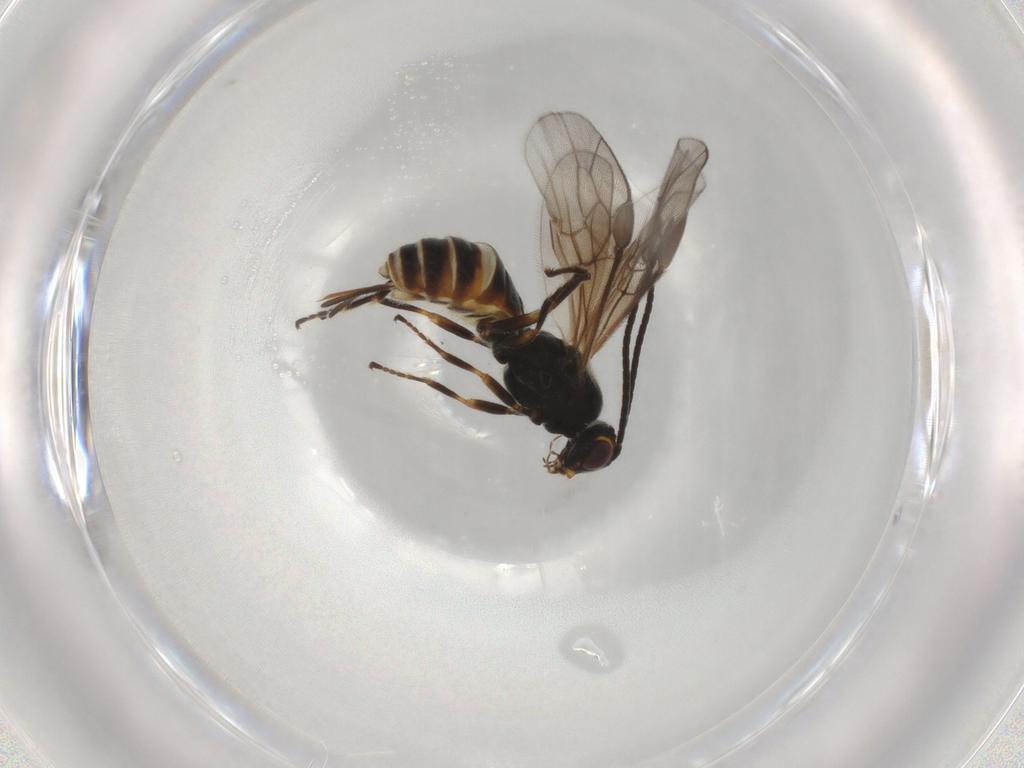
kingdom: Animalia
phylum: Arthropoda
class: Insecta
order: Hymenoptera
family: Braconidae
